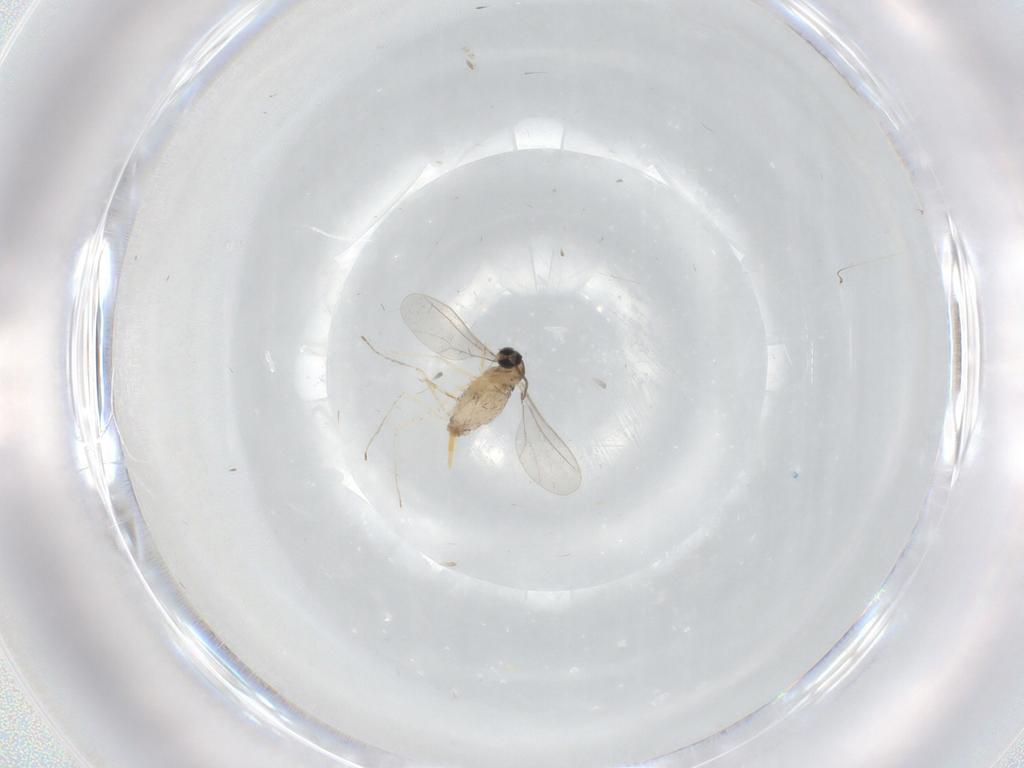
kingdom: Animalia
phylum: Arthropoda
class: Insecta
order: Diptera
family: Cecidomyiidae
